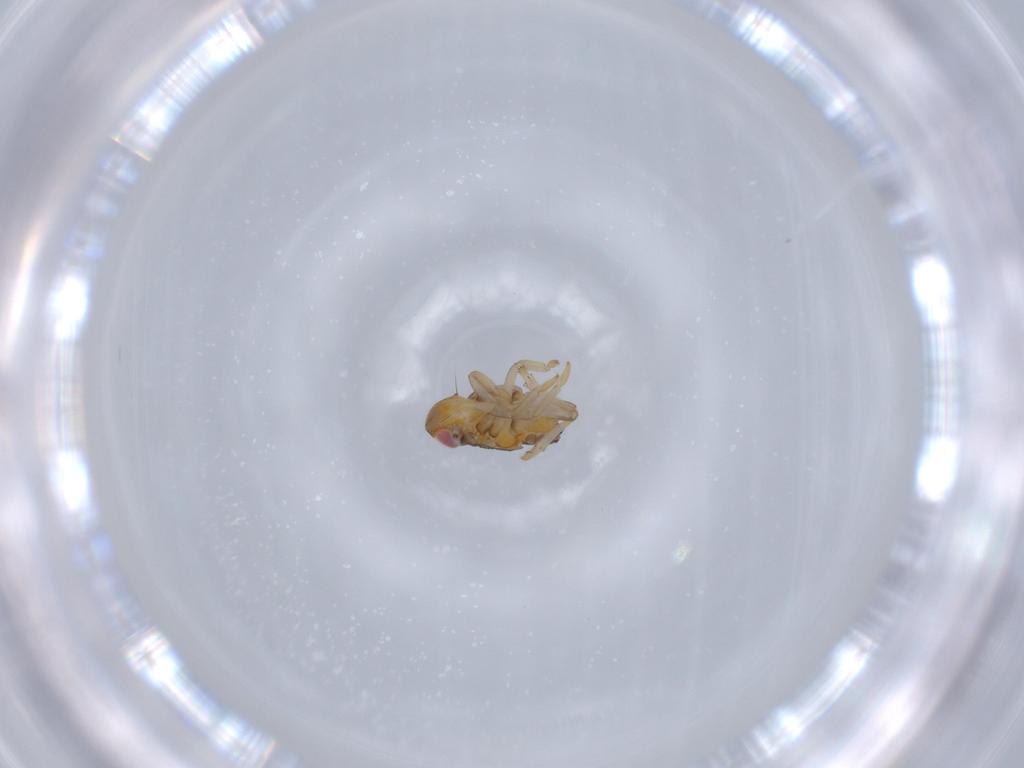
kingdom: Animalia
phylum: Arthropoda
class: Insecta
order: Hemiptera
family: Issidae
